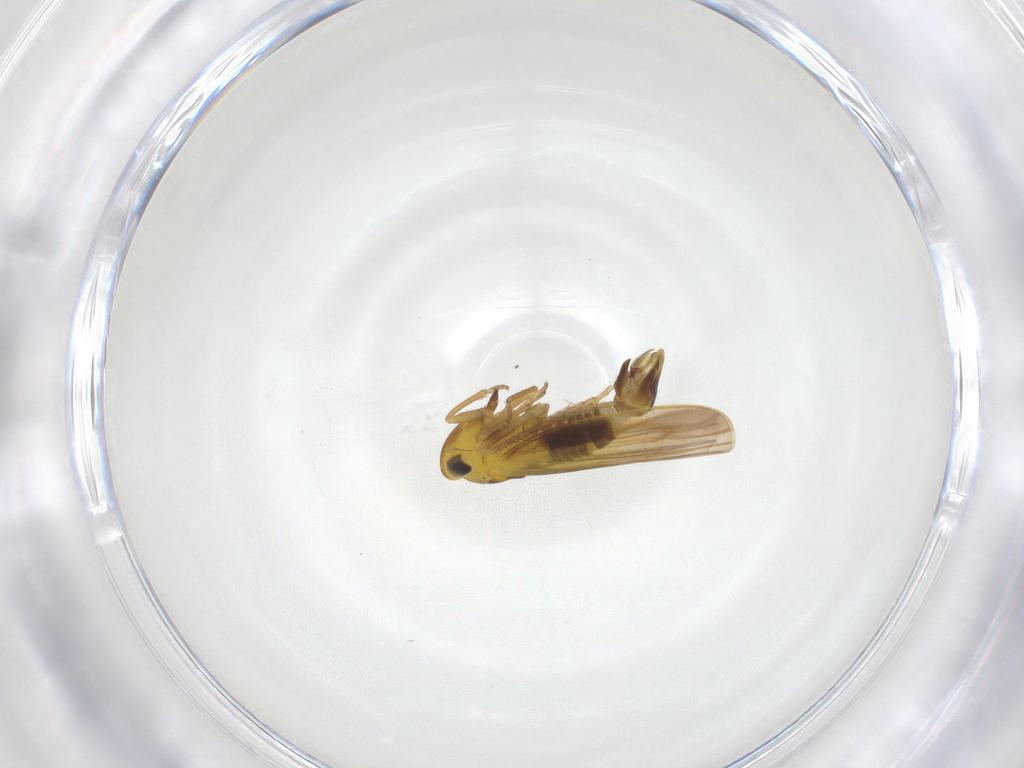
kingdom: Animalia
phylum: Arthropoda
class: Insecta
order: Hemiptera
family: Cicadellidae
